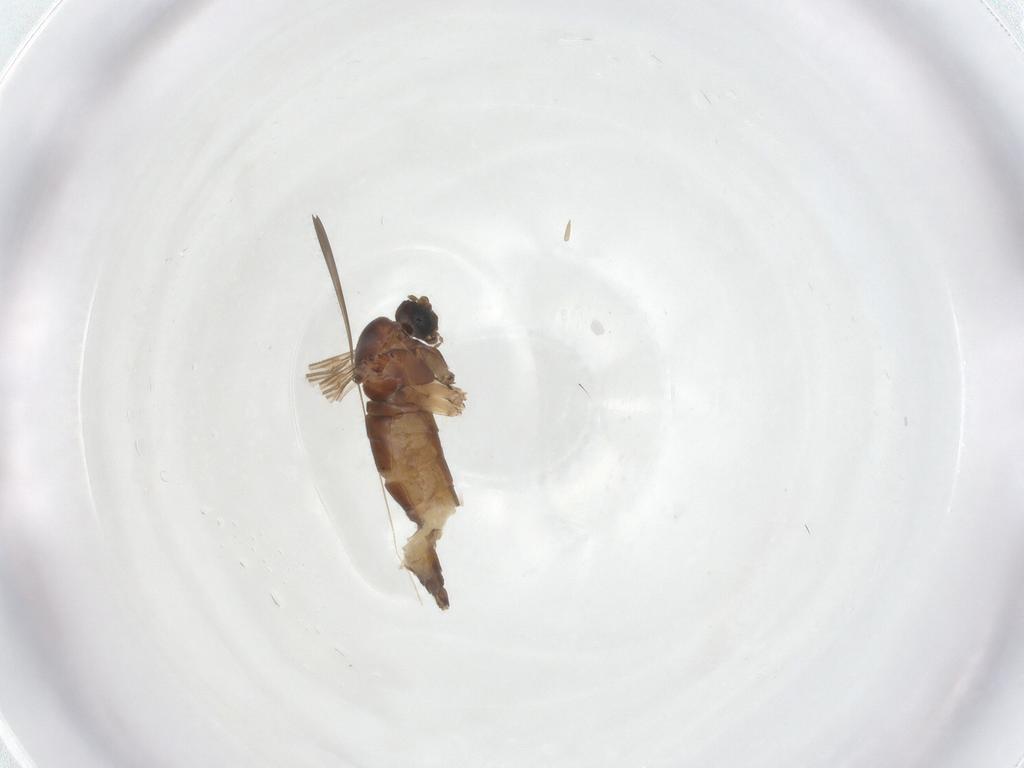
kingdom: Animalia
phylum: Arthropoda
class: Insecta
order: Diptera
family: Sciaridae
